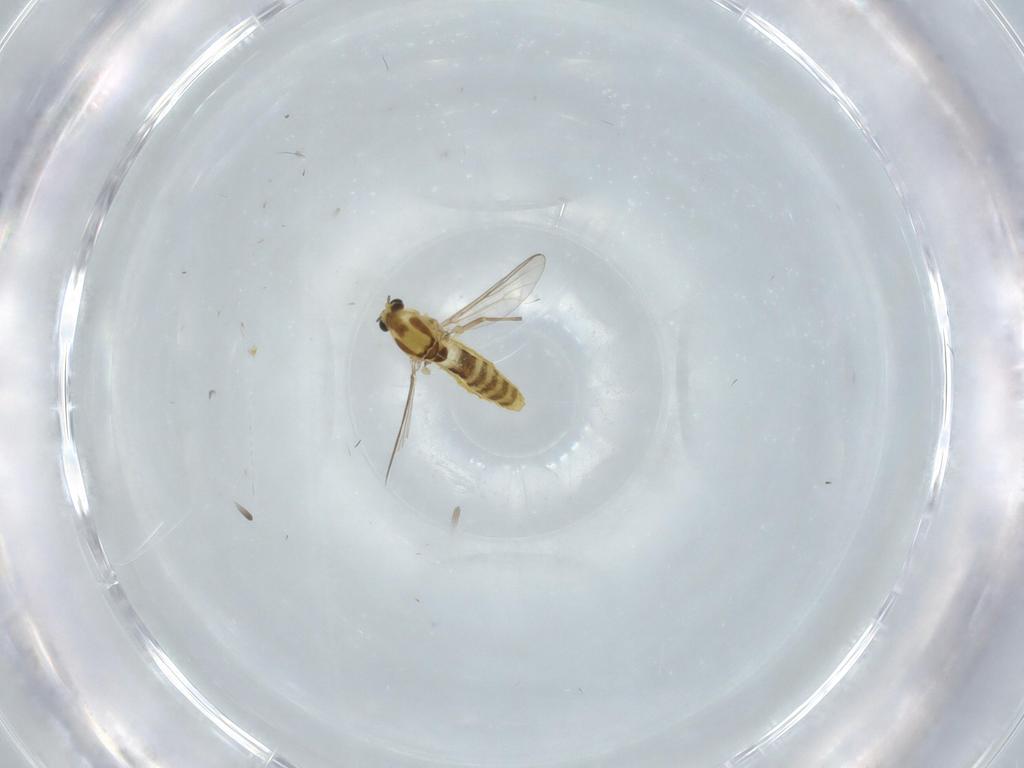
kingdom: Animalia
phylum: Arthropoda
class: Insecta
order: Diptera
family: Chironomidae
